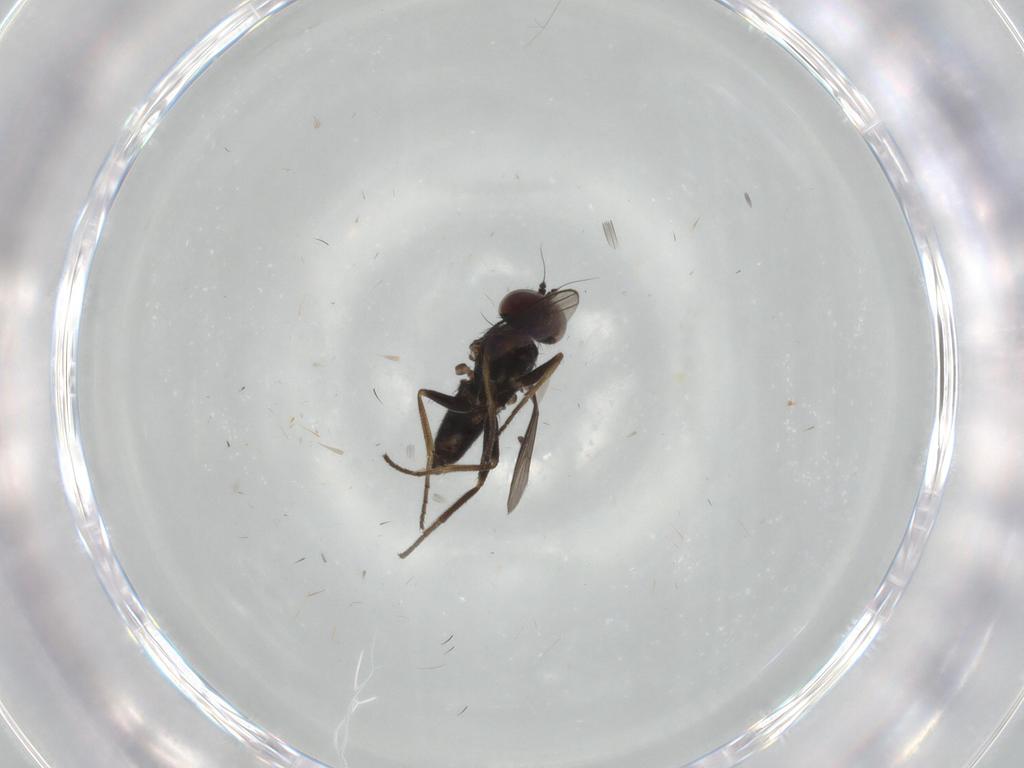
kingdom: Animalia
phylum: Arthropoda
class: Insecta
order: Diptera
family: Dolichopodidae
